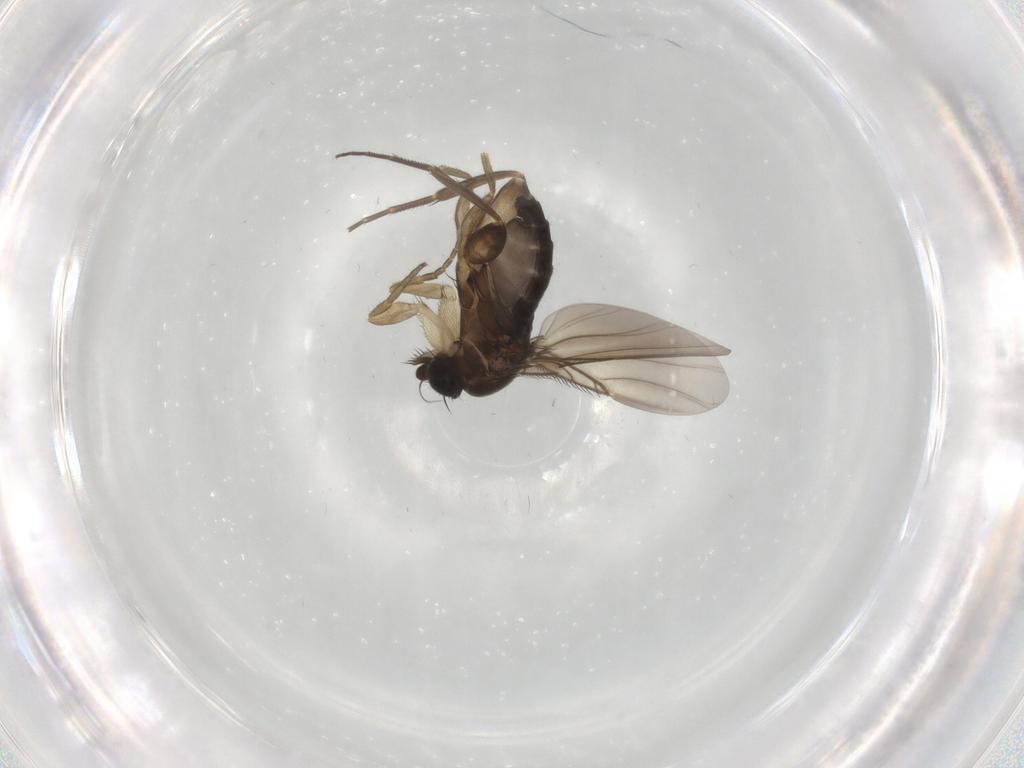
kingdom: Animalia
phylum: Arthropoda
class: Insecta
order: Diptera
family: Phoridae
